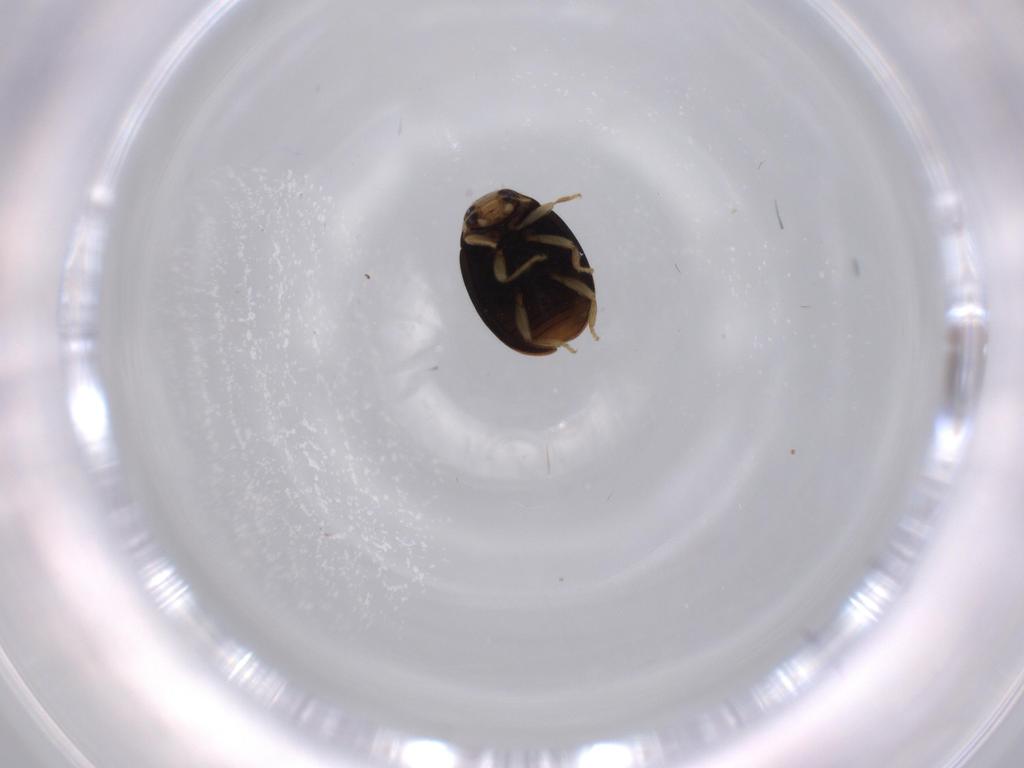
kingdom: Animalia
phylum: Arthropoda
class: Insecta
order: Coleoptera
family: Coccinellidae
